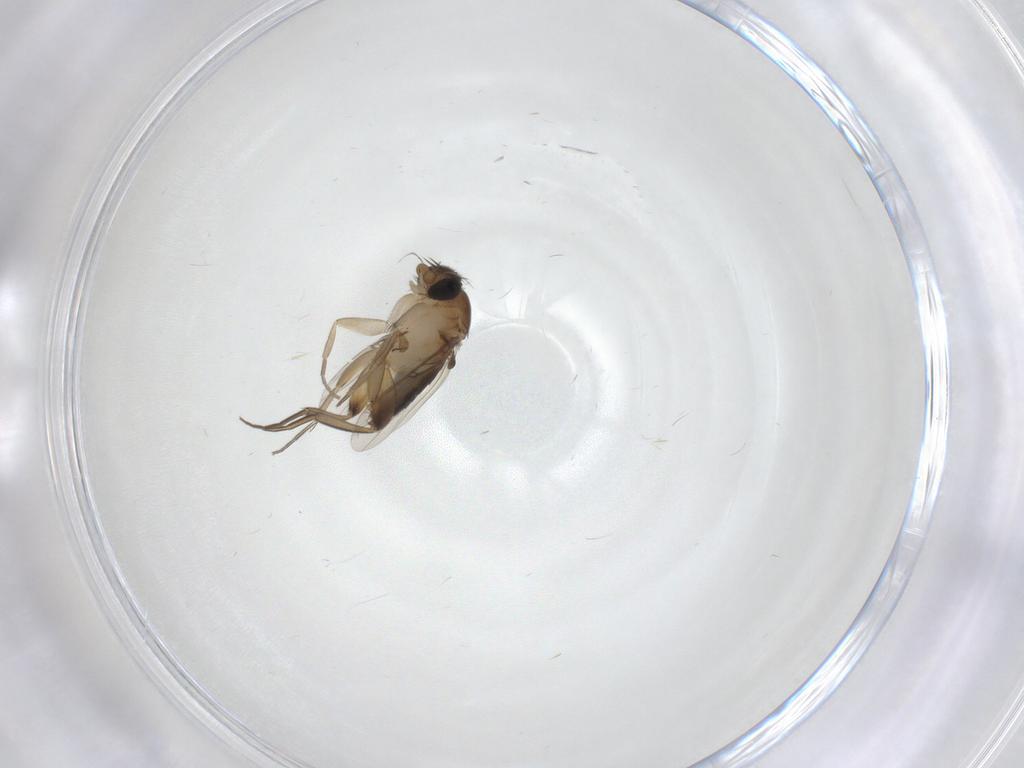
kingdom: Animalia
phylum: Arthropoda
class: Insecta
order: Diptera
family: Phoridae
